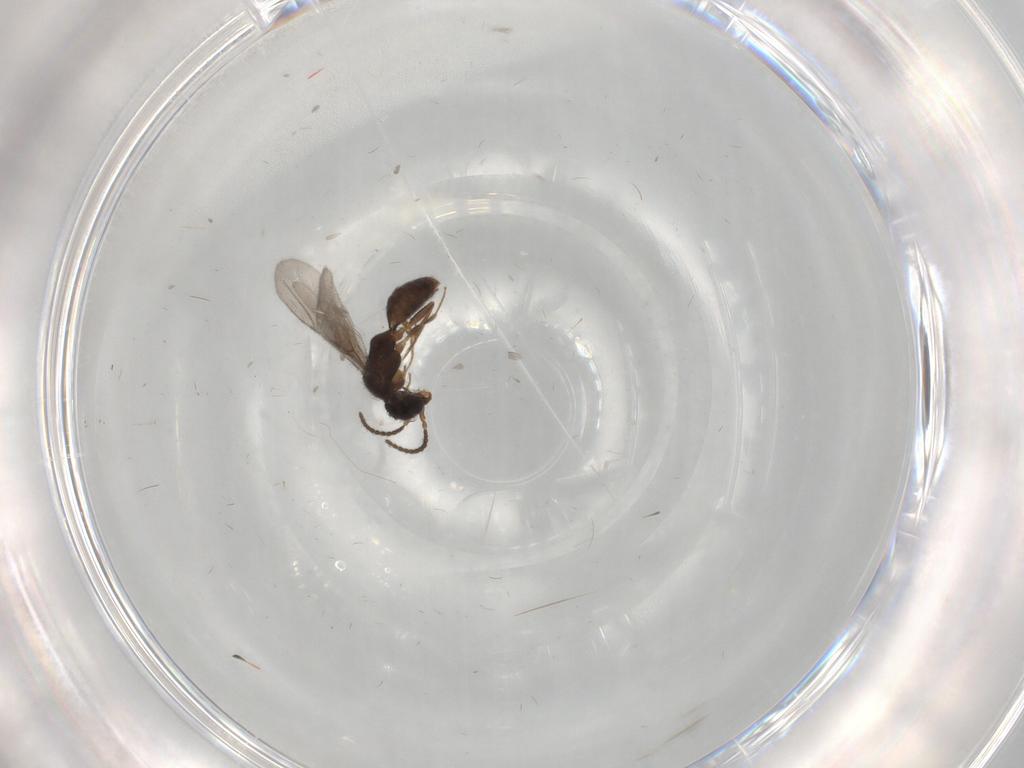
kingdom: Animalia
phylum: Arthropoda
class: Insecta
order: Hymenoptera
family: Bethylidae
